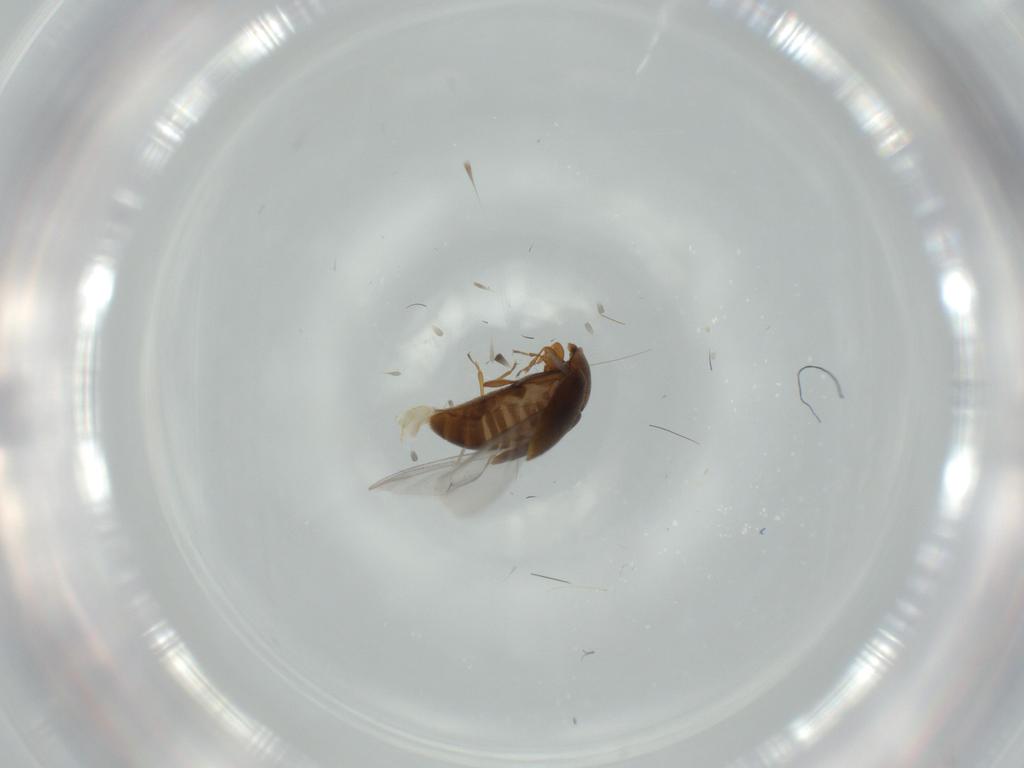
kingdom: Animalia
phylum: Arthropoda
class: Insecta
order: Coleoptera
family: Corylophidae
